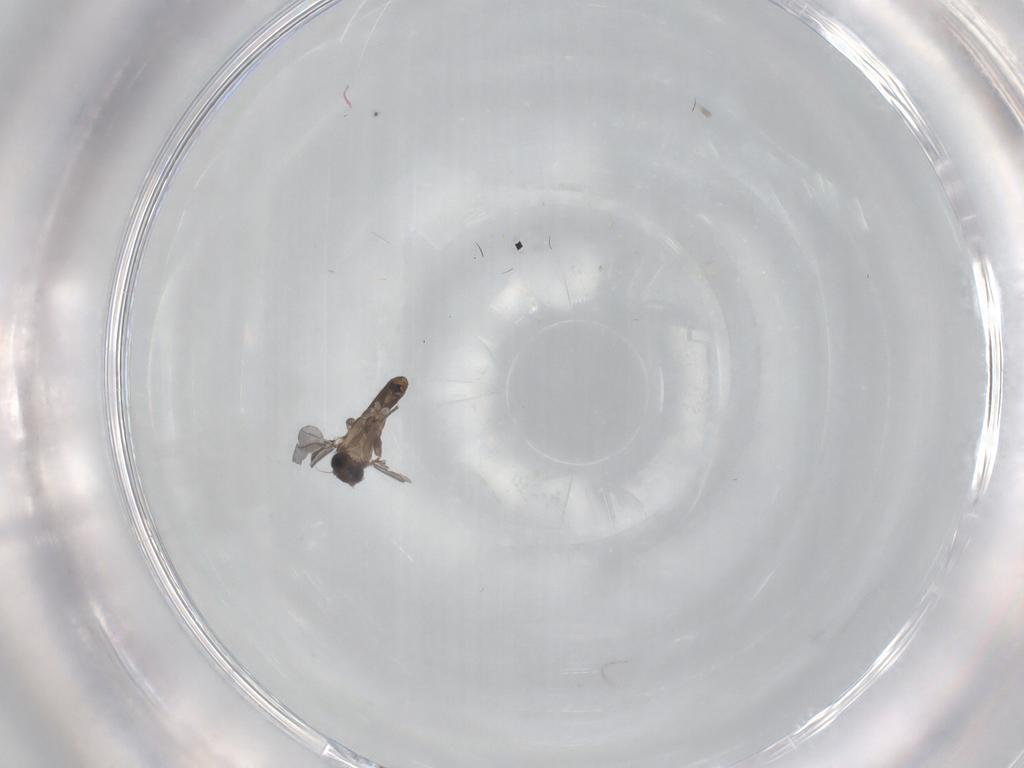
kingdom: Animalia
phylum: Arthropoda
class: Insecta
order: Diptera
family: Phoridae
